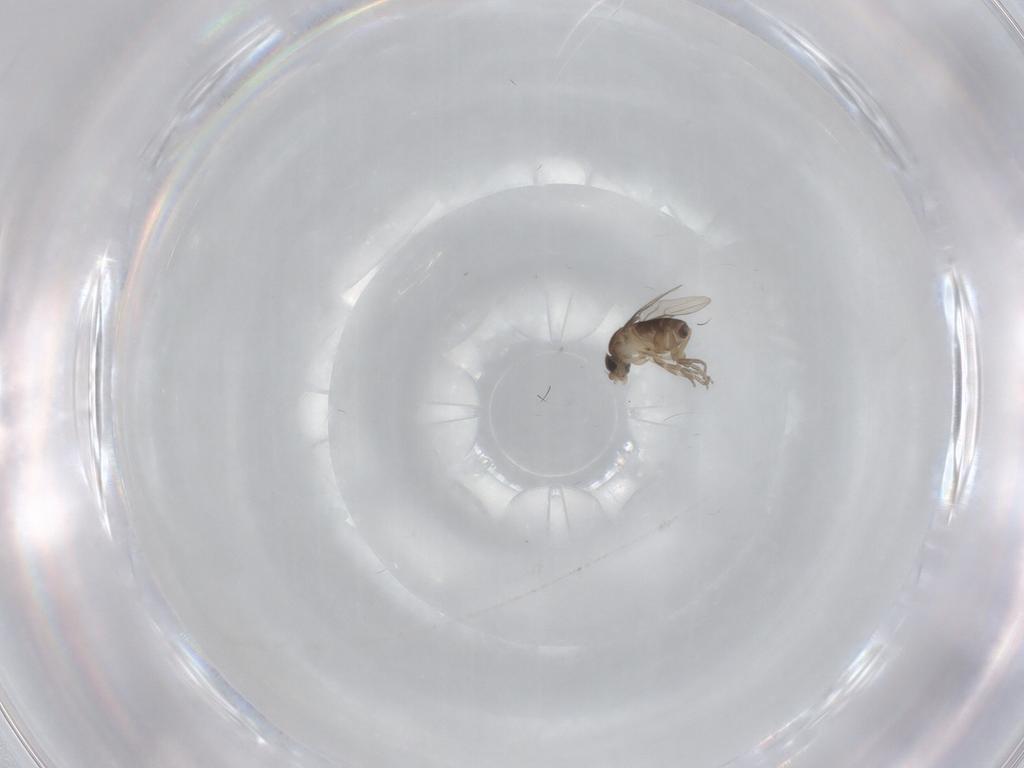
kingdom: Animalia
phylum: Arthropoda
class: Insecta
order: Diptera
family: Phoridae
